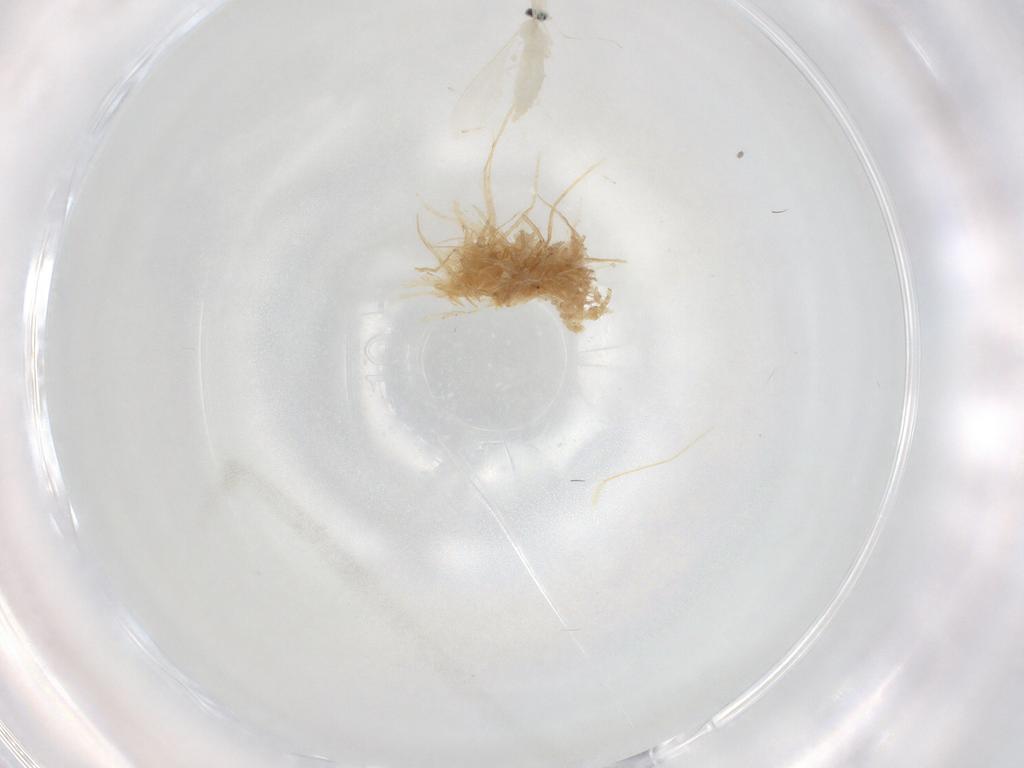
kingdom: Animalia
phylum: Arthropoda
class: Insecta
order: Diptera
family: Cecidomyiidae
